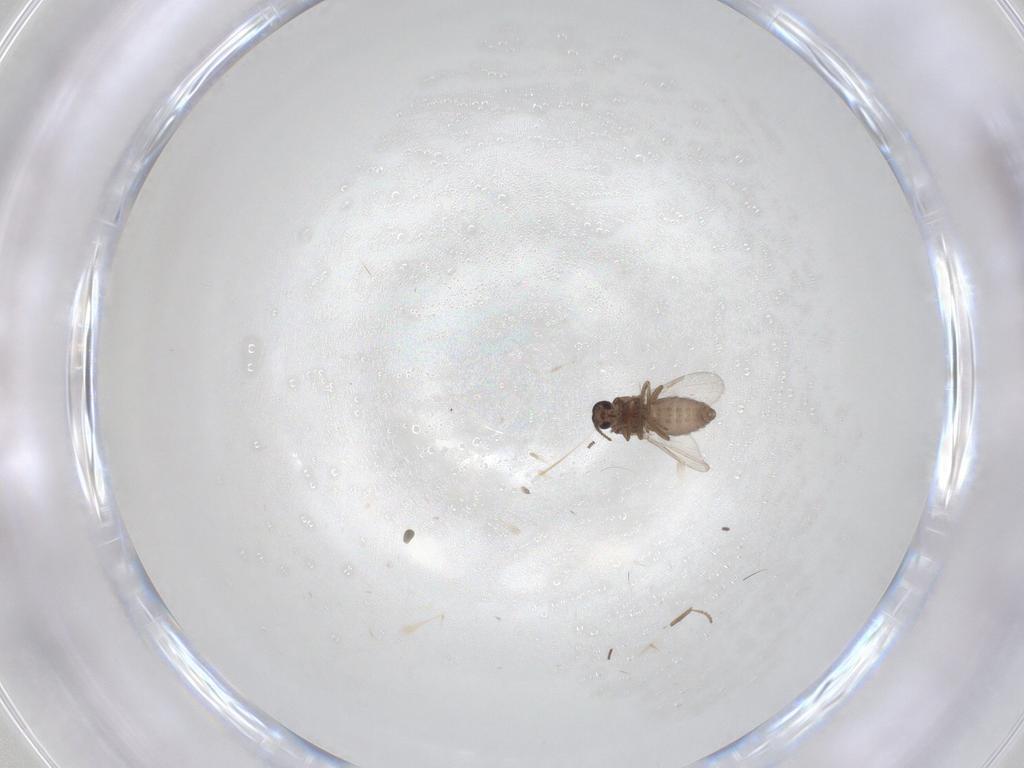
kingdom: Animalia
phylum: Arthropoda
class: Insecta
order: Diptera
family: Ceratopogonidae
